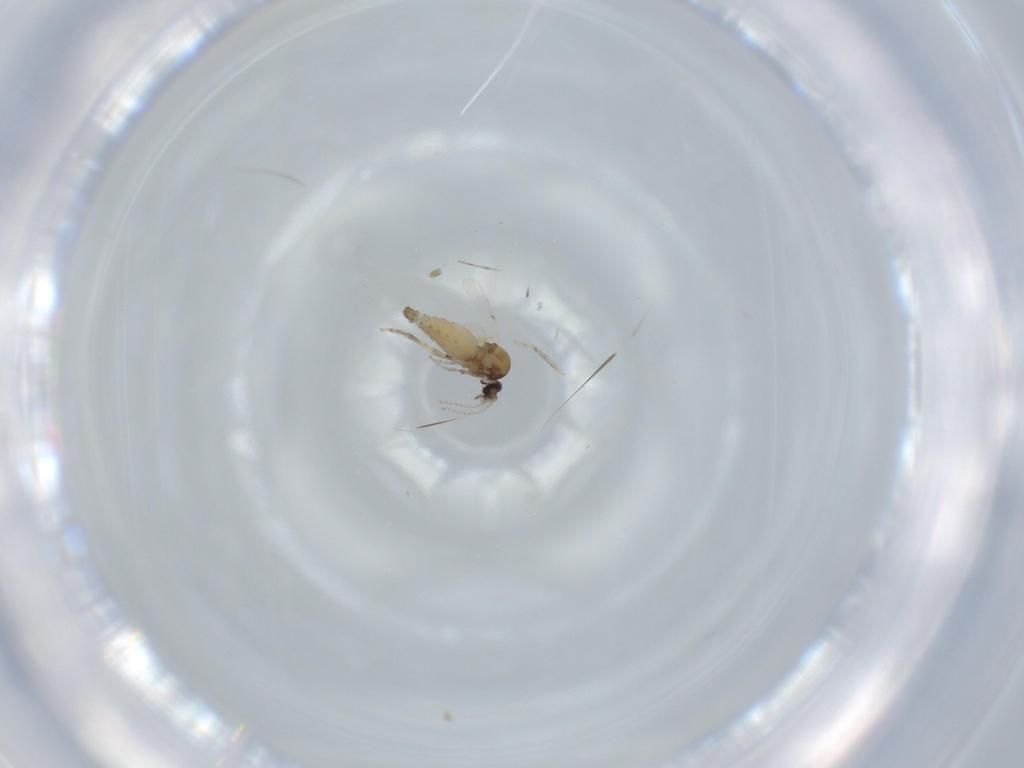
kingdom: Animalia
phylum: Arthropoda
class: Insecta
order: Diptera
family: Ceratopogonidae
